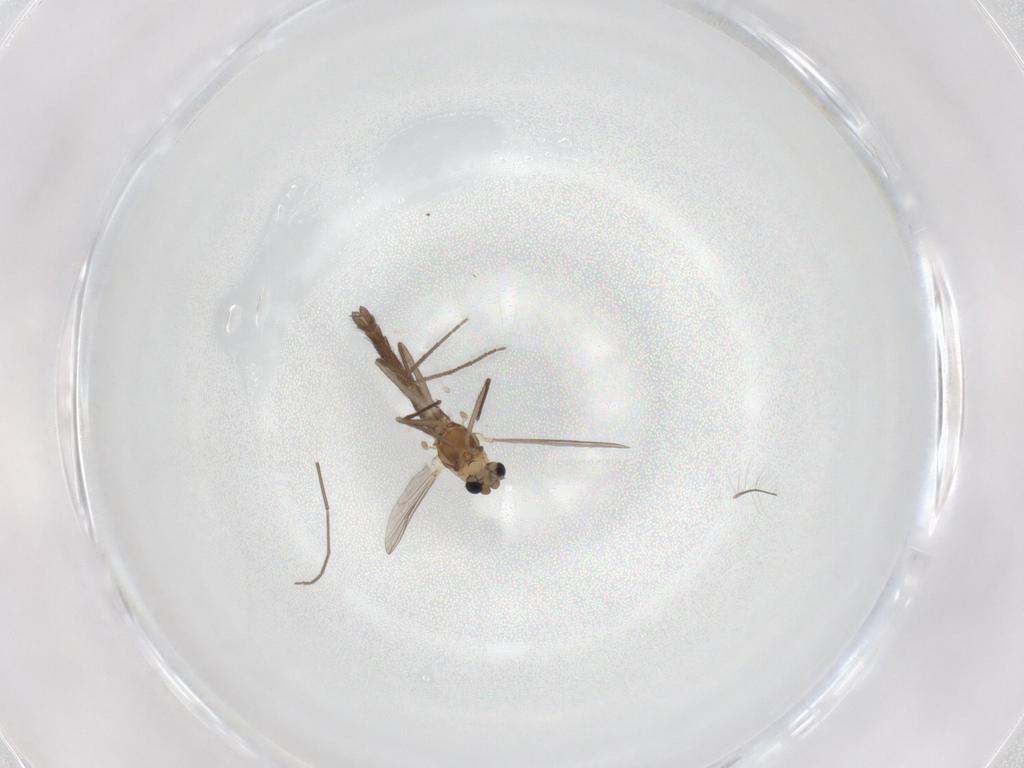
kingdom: Animalia
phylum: Arthropoda
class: Insecta
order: Diptera
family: Chironomidae
